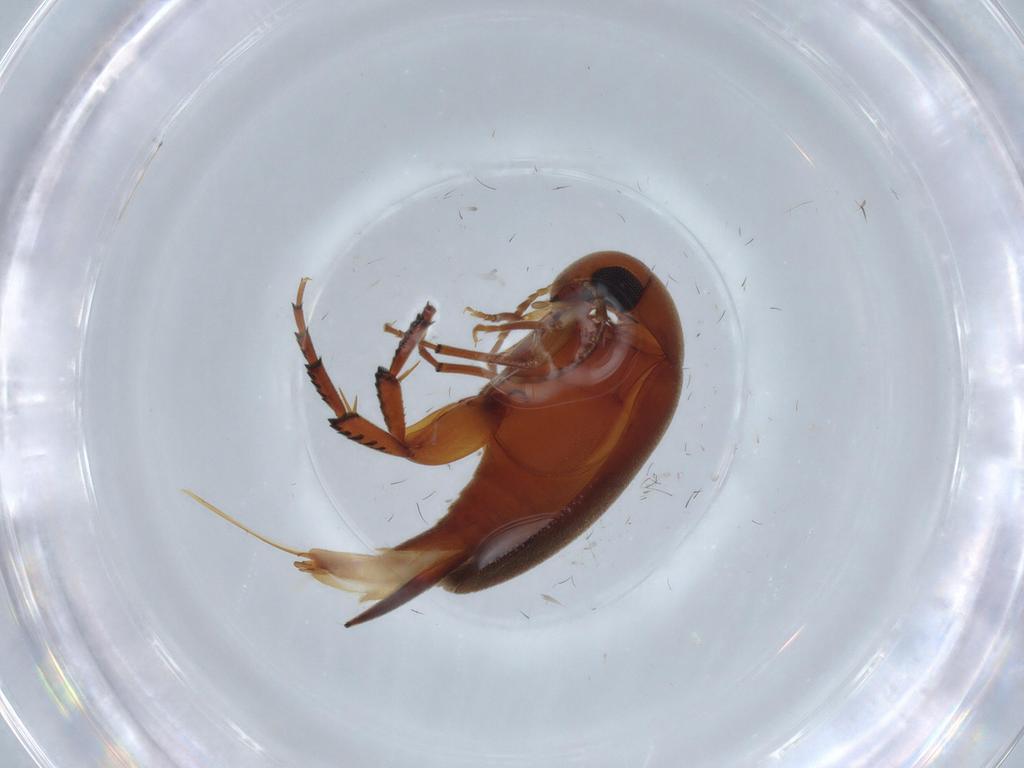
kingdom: Animalia
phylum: Arthropoda
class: Insecta
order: Coleoptera
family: Mordellidae
